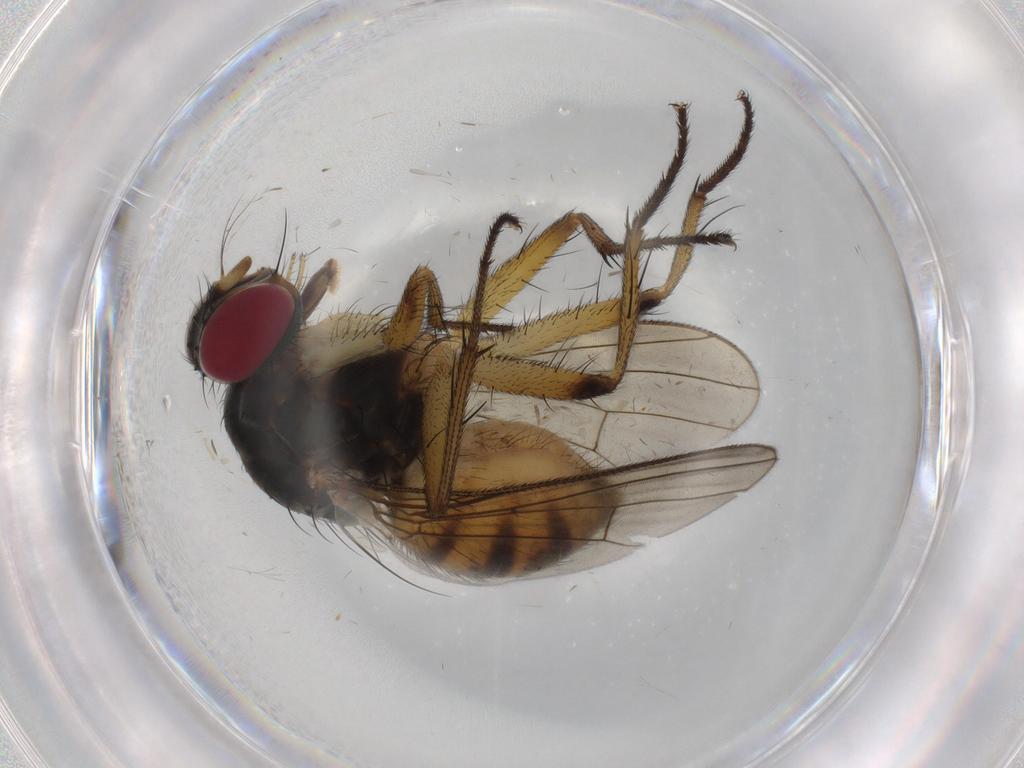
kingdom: Animalia
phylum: Arthropoda
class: Insecta
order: Diptera
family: Muscidae
